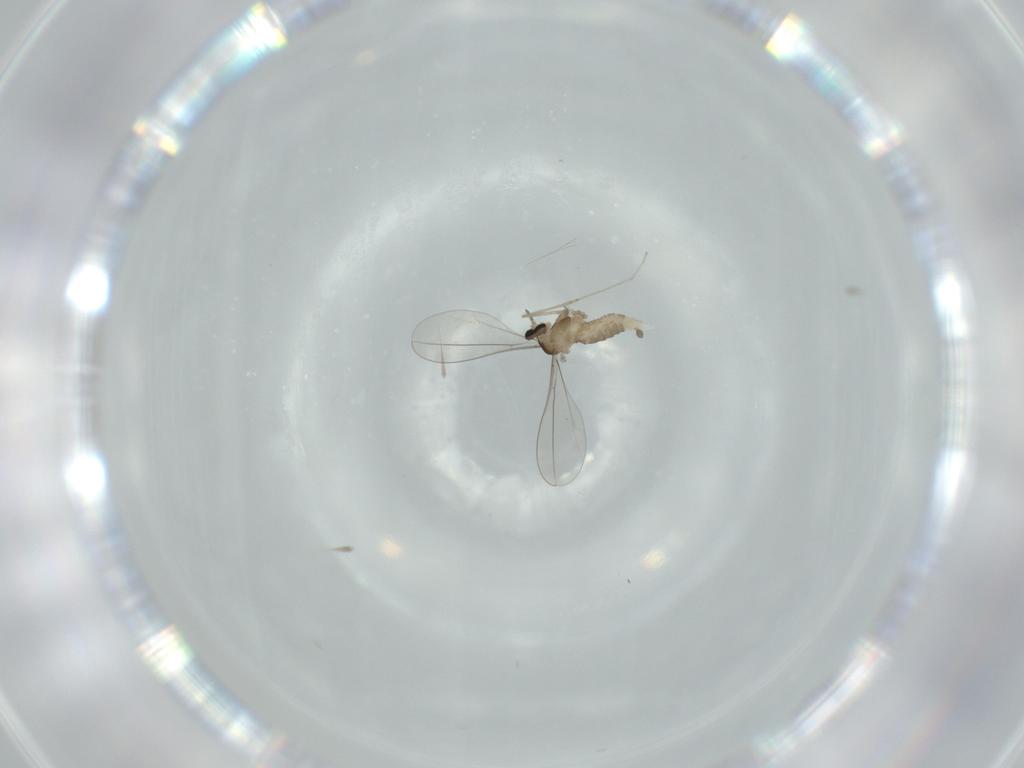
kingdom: Animalia
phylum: Arthropoda
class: Insecta
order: Diptera
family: Cecidomyiidae
